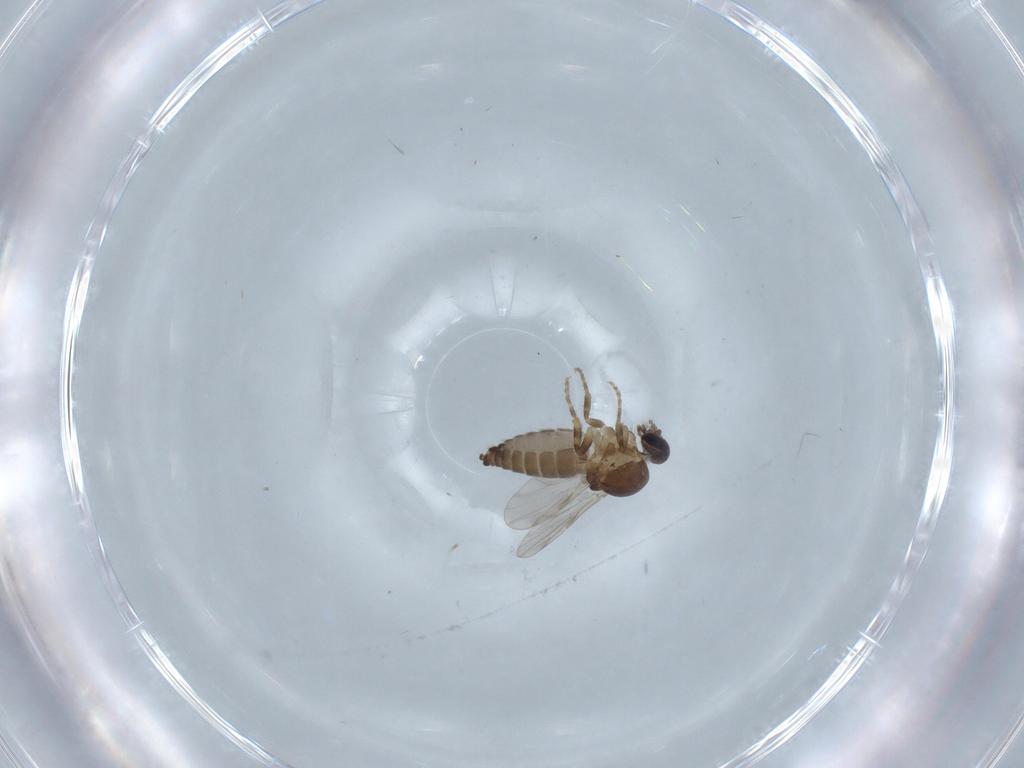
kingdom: Animalia
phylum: Arthropoda
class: Insecta
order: Diptera
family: Ceratopogonidae
